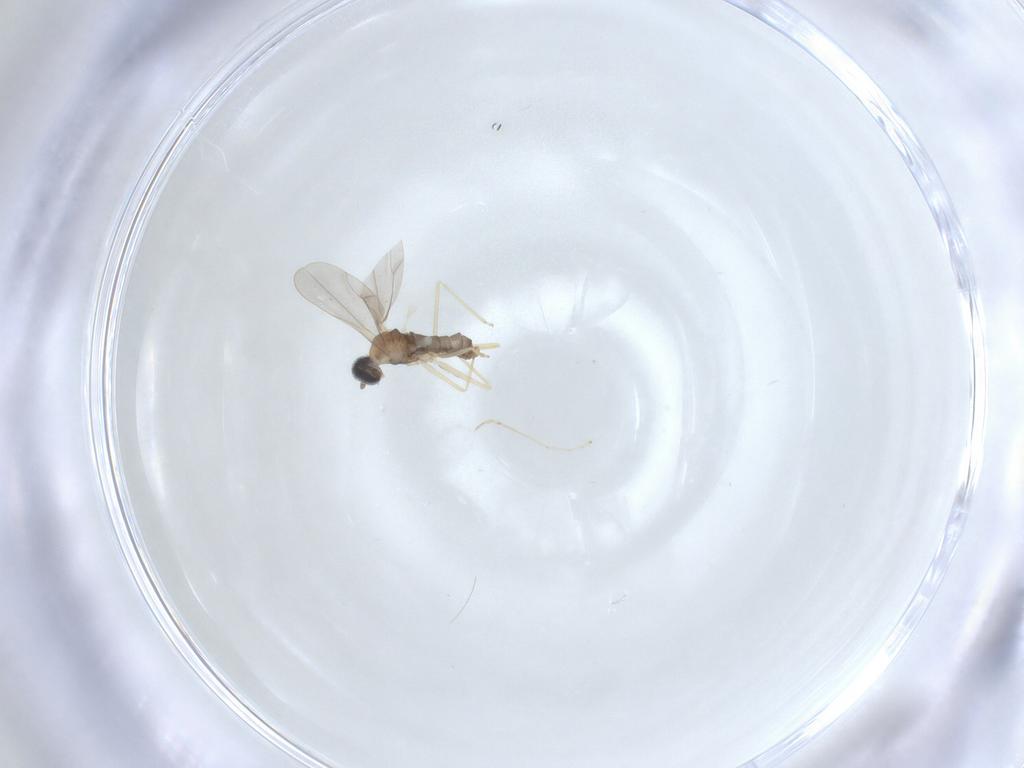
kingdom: Animalia
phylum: Arthropoda
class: Insecta
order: Diptera
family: Cecidomyiidae
